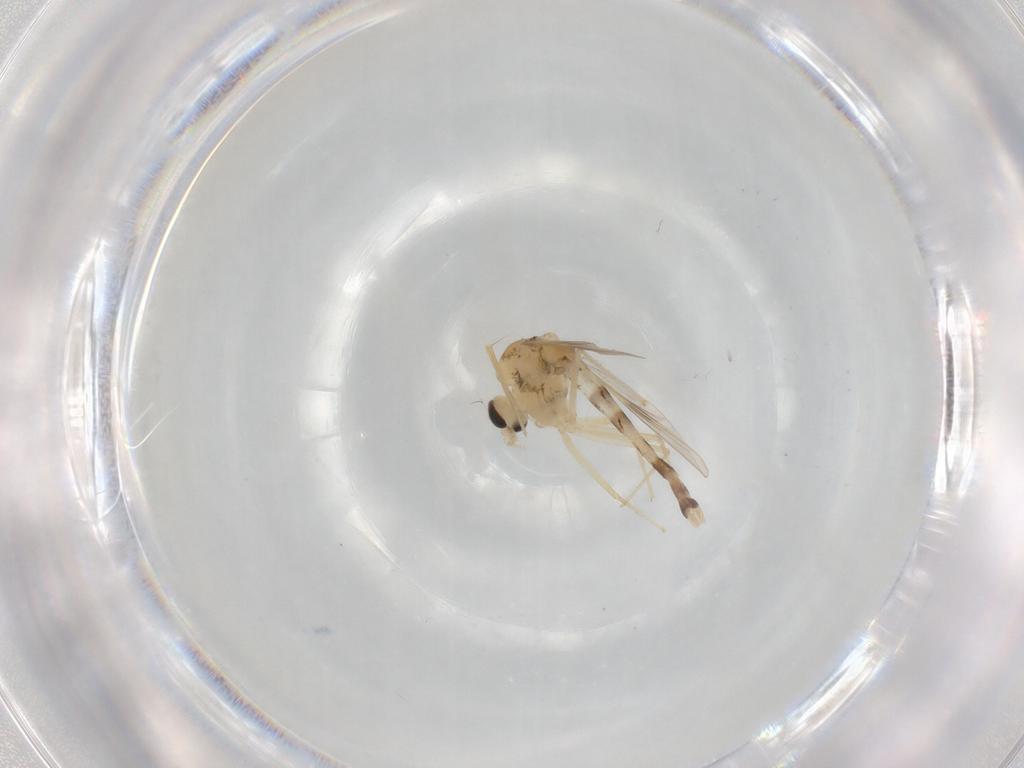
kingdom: Animalia
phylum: Arthropoda
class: Insecta
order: Diptera
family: Chironomidae
